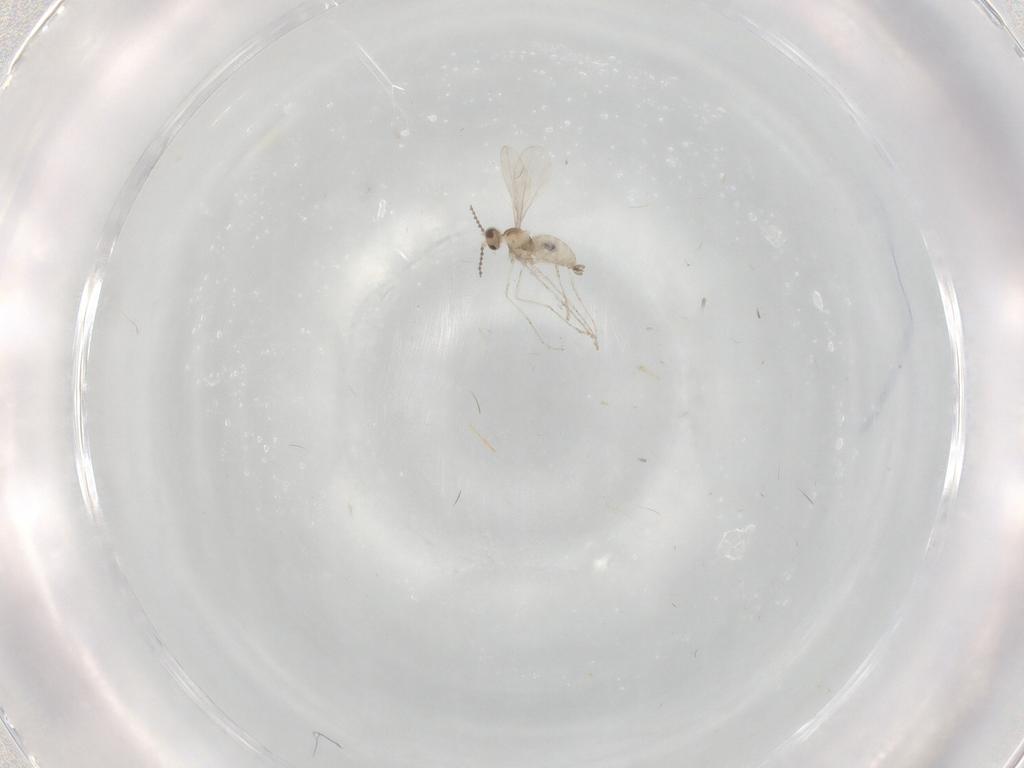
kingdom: Animalia
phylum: Arthropoda
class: Insecta
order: Diptera
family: Cecidomyiidae
